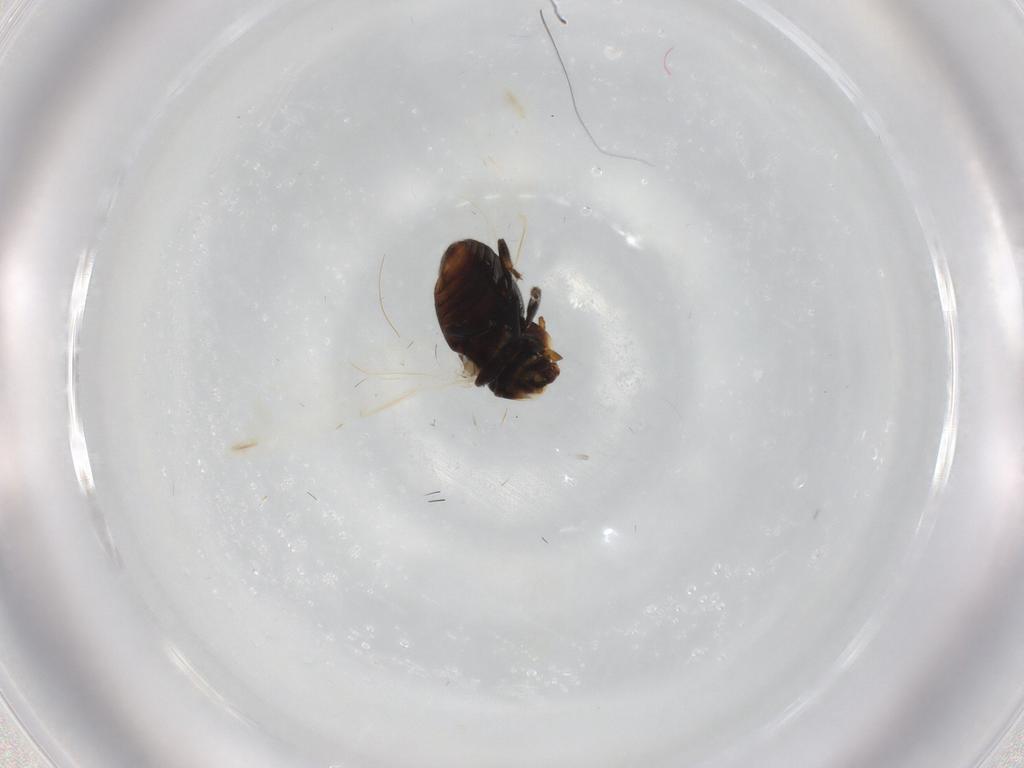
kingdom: Animalia
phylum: Arthropoda
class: Insecta
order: Coleoptera
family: Coccinellidae
